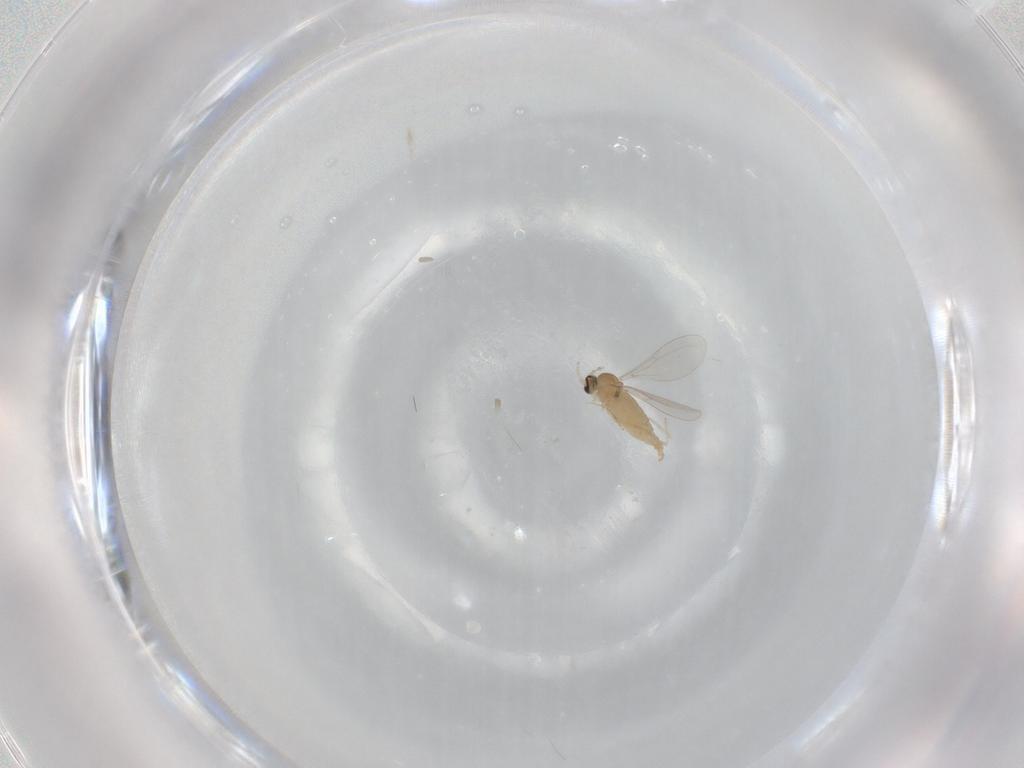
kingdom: Animalia
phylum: Arthropoda
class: Insecta
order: Diptera
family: Cecidomyiidae
